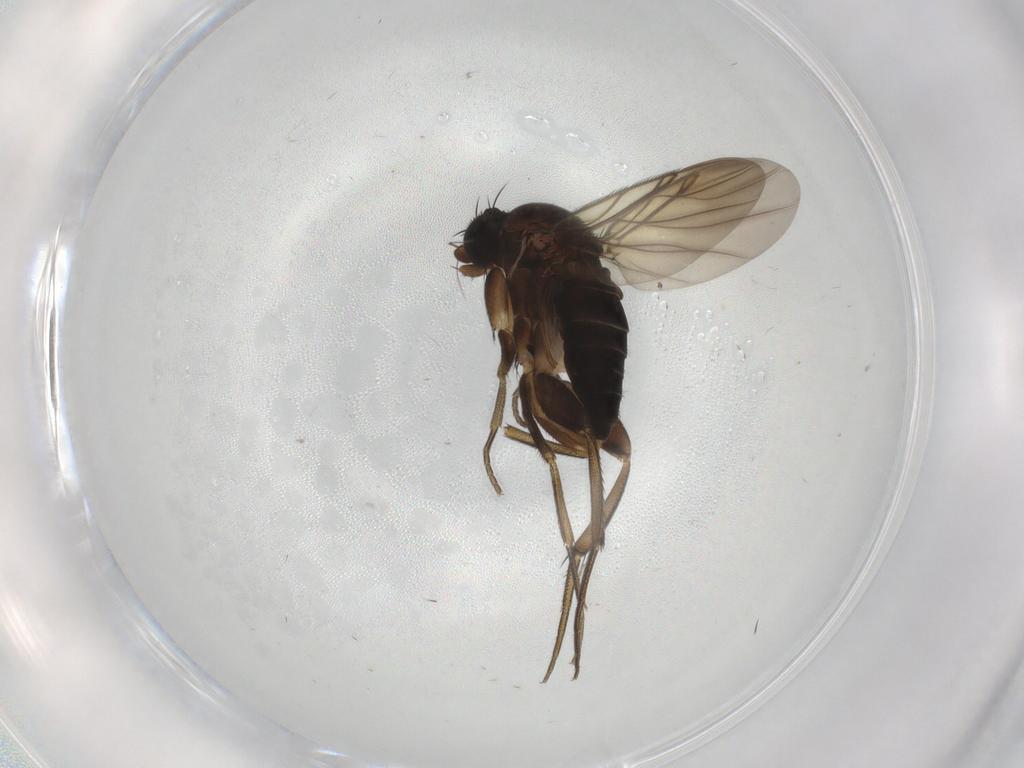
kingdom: Animalia
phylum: Arthropoda
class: Insecta
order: Diptera
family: Phoridae
